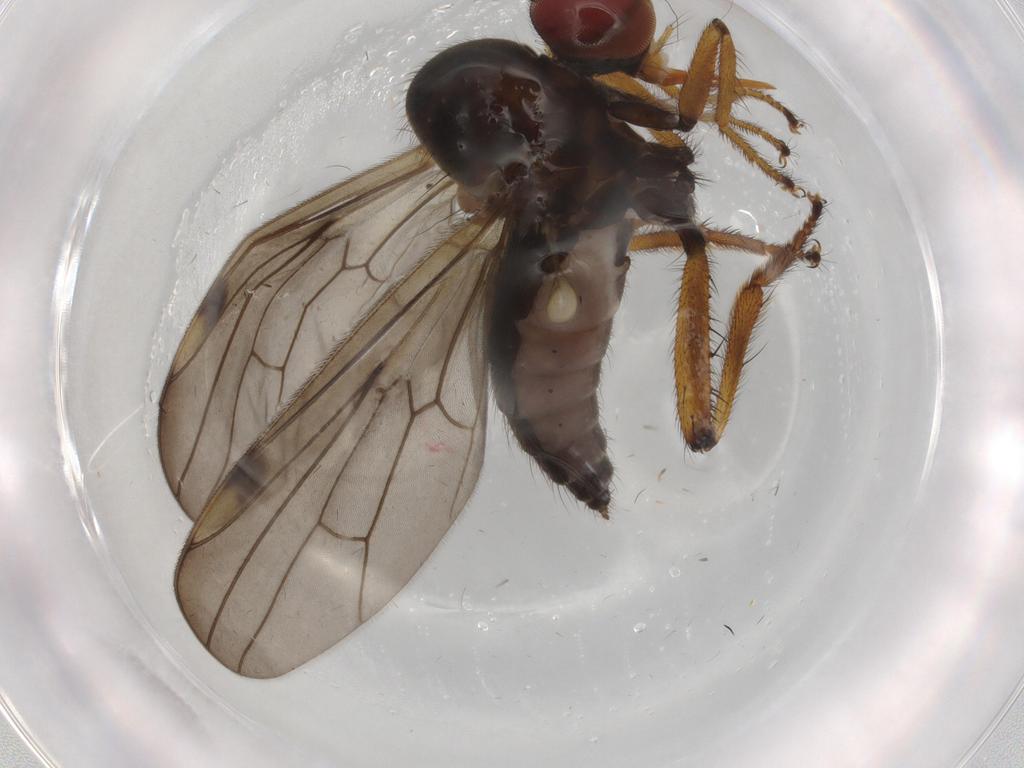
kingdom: Animalia
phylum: Arthropoda
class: Insecta
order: Diptera
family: Hybotidae
